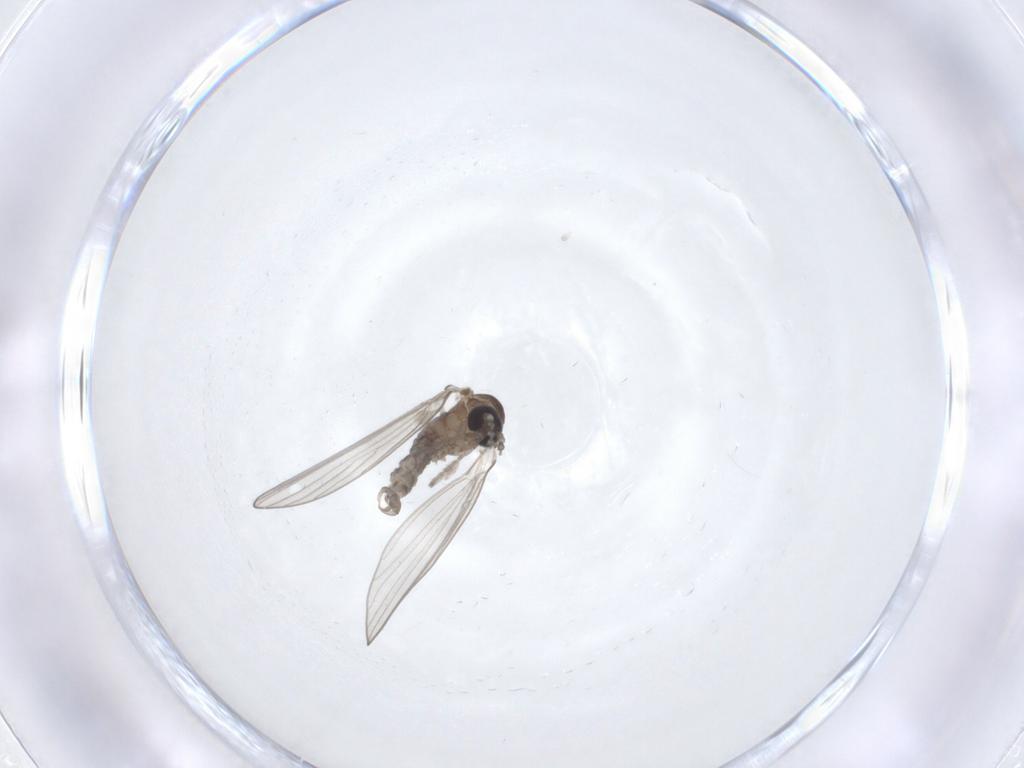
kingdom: Animalia
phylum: Arthropoda
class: Insecta
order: Diptera
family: Psychodidae
